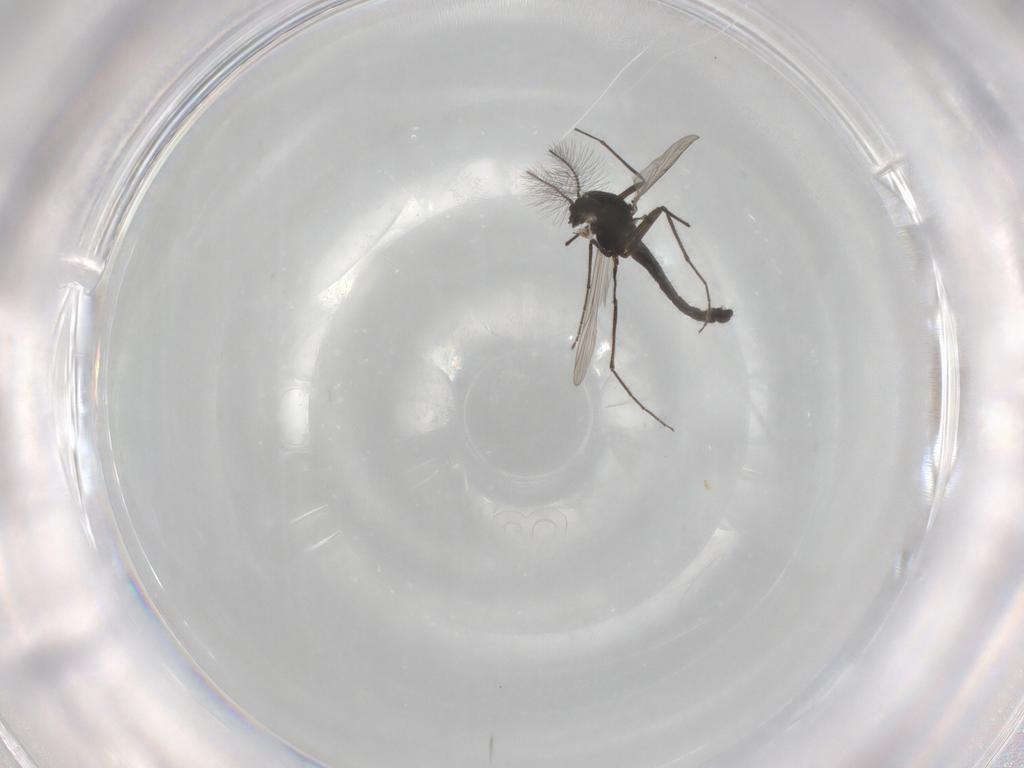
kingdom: Animalia
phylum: Arthropoda
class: Insecta
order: Diptera
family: Chironomidae
